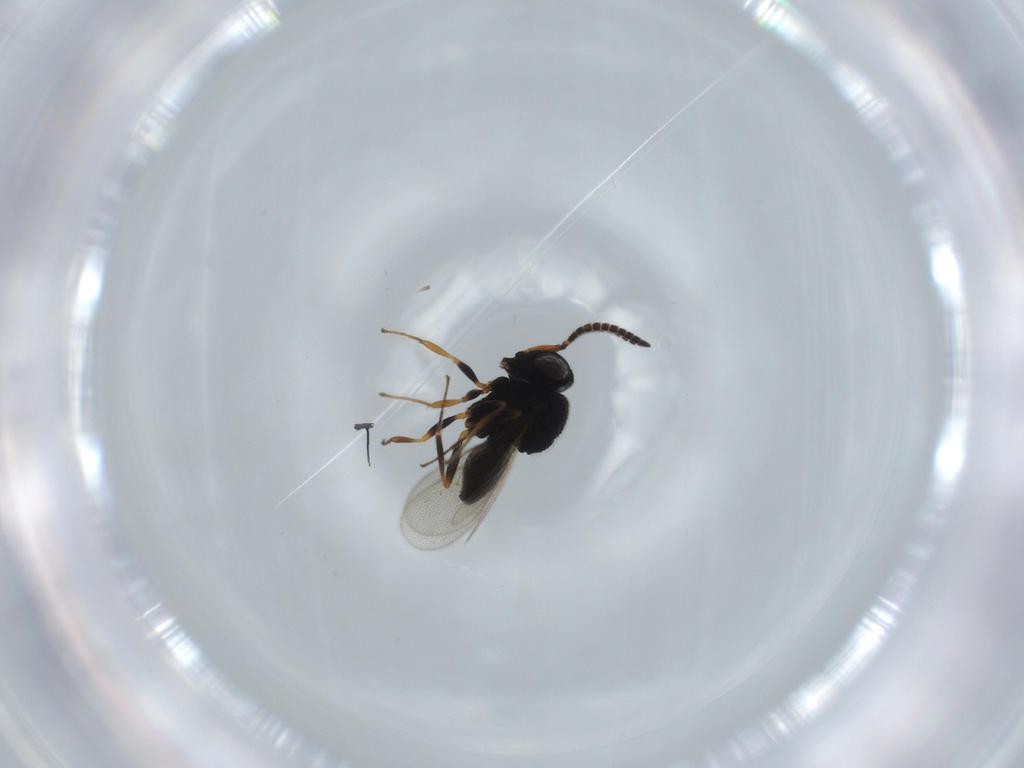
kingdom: Animalia
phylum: Arthropoda
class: Insecta
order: Hymenoptera
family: Scelionidae
